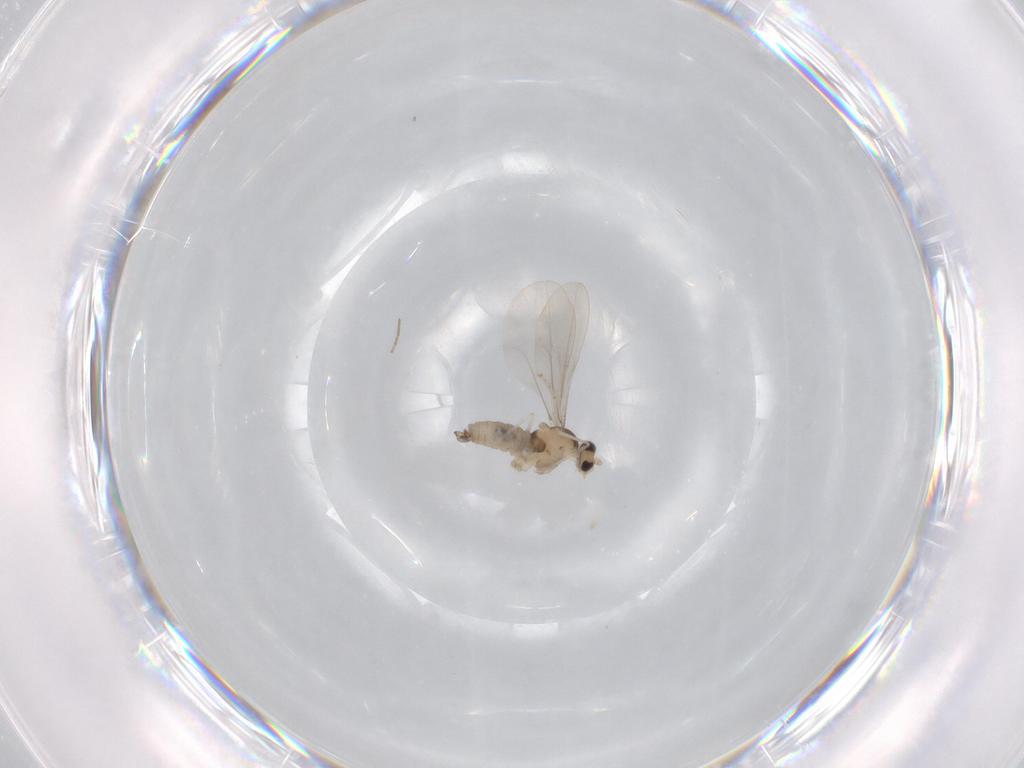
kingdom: Animalia
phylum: Arthropoda
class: Insecta
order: Diptera
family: Cecidomyiidae
